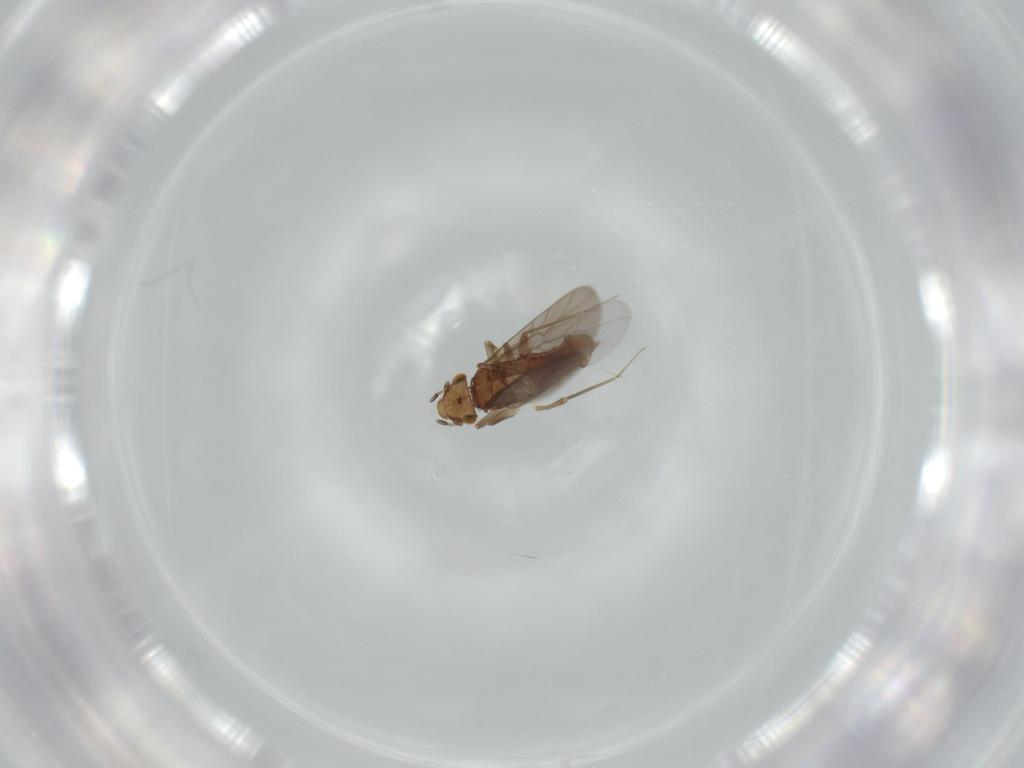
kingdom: Animalia
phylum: Arthropoda
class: Insecta
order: Psocodea
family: Lepidopsocidae
